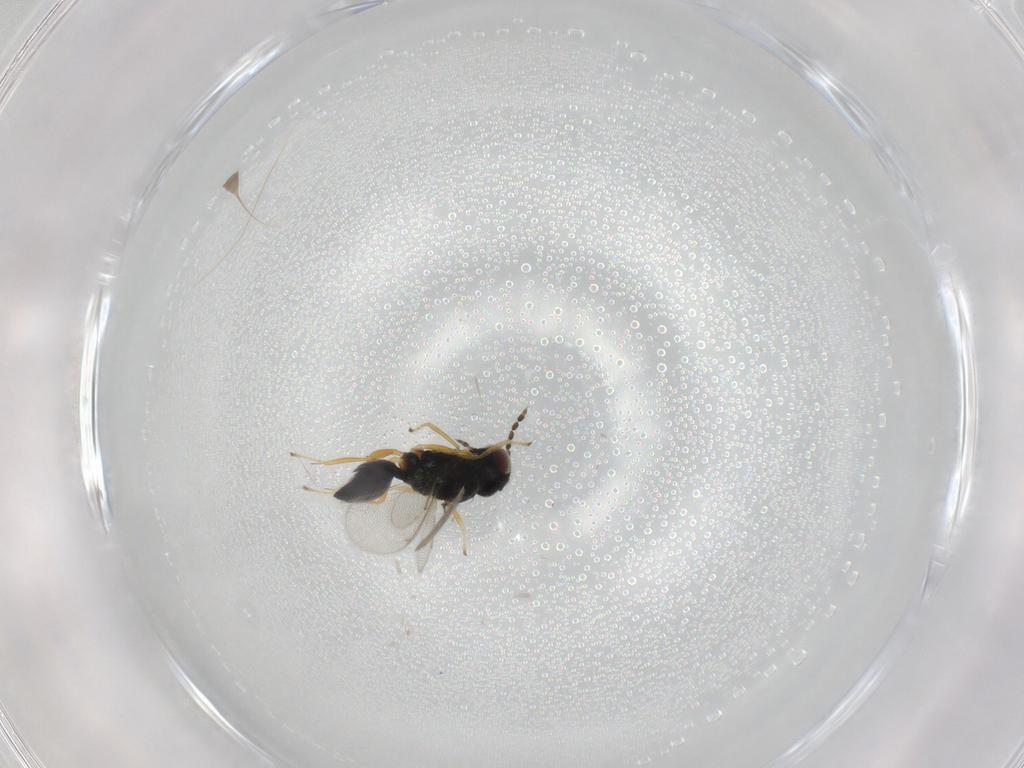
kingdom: Animalia
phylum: Arthropoda
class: Insecta
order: Hymenoptera
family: Eulophidae
